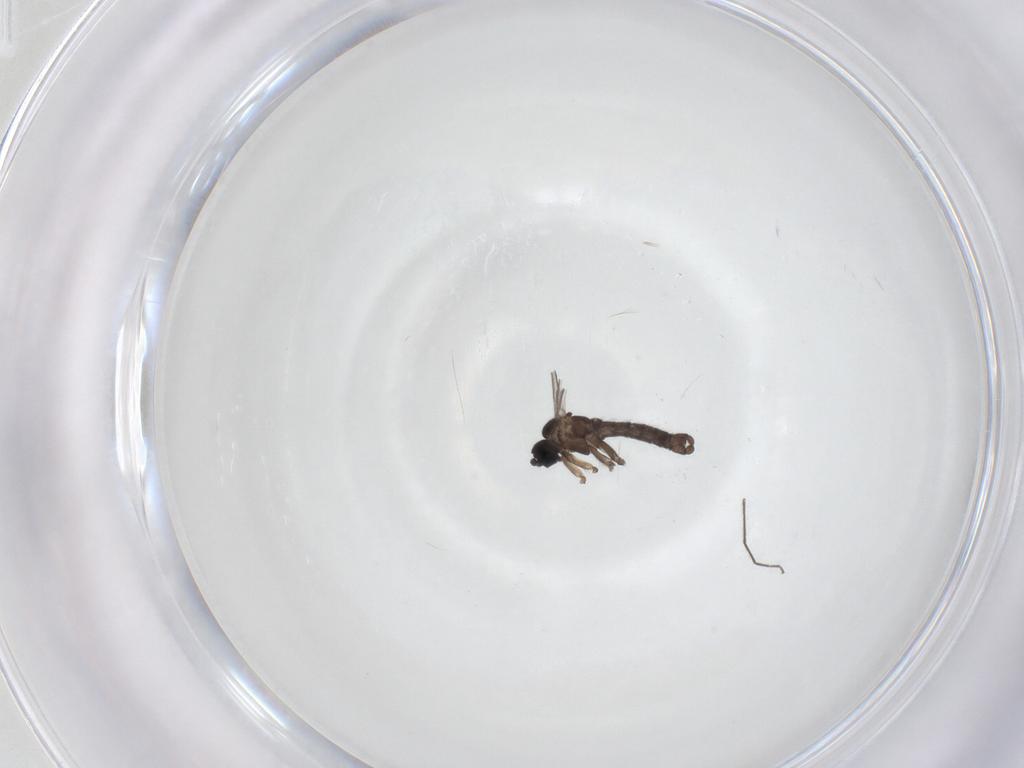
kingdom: Animalia
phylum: Arthropoda
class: Insecta
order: Diptera
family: Sciaridae
